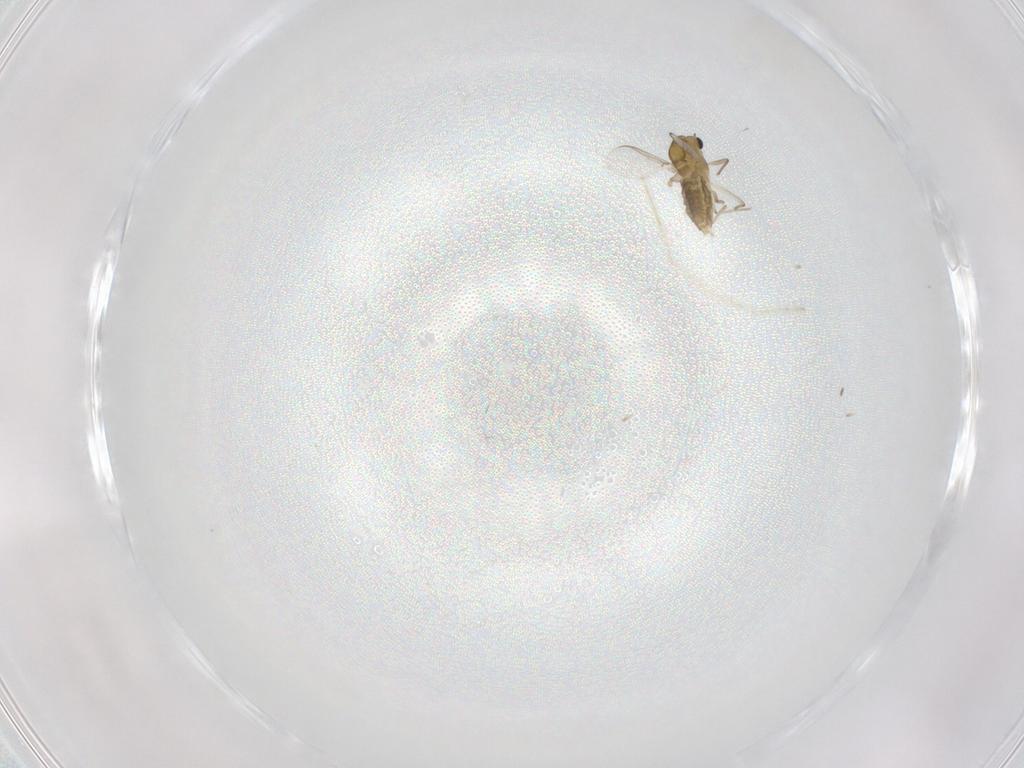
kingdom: Animalia
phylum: Arthropoda
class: Insecta
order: Diptera
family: Chironomidae
